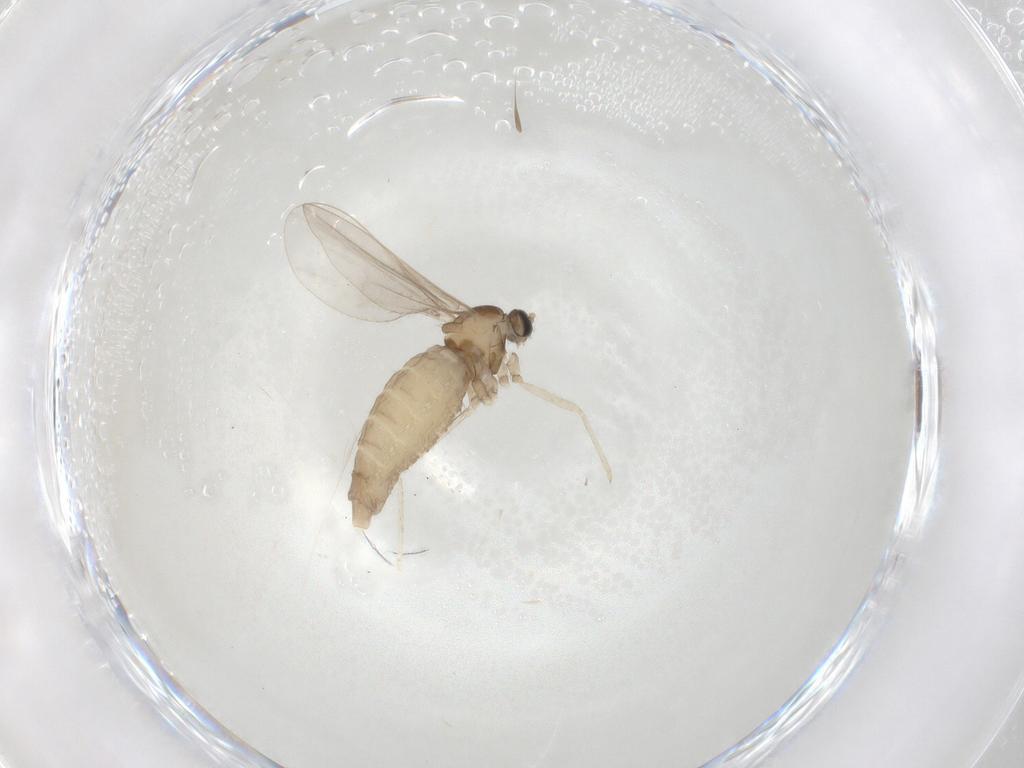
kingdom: Animalia
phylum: Arthropoda
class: Insecta
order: Diptera
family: Cecidomyiidae
